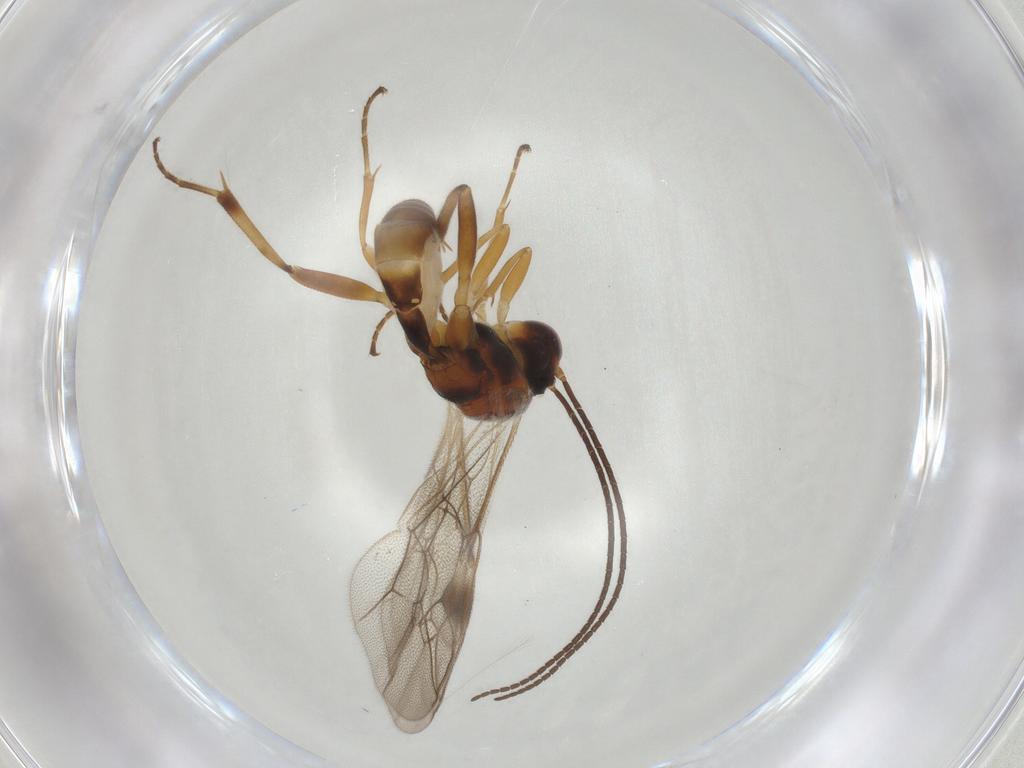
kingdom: Animalia
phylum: Arthropoda
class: Insecta
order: Hymenoptera
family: Ichneumonidae
